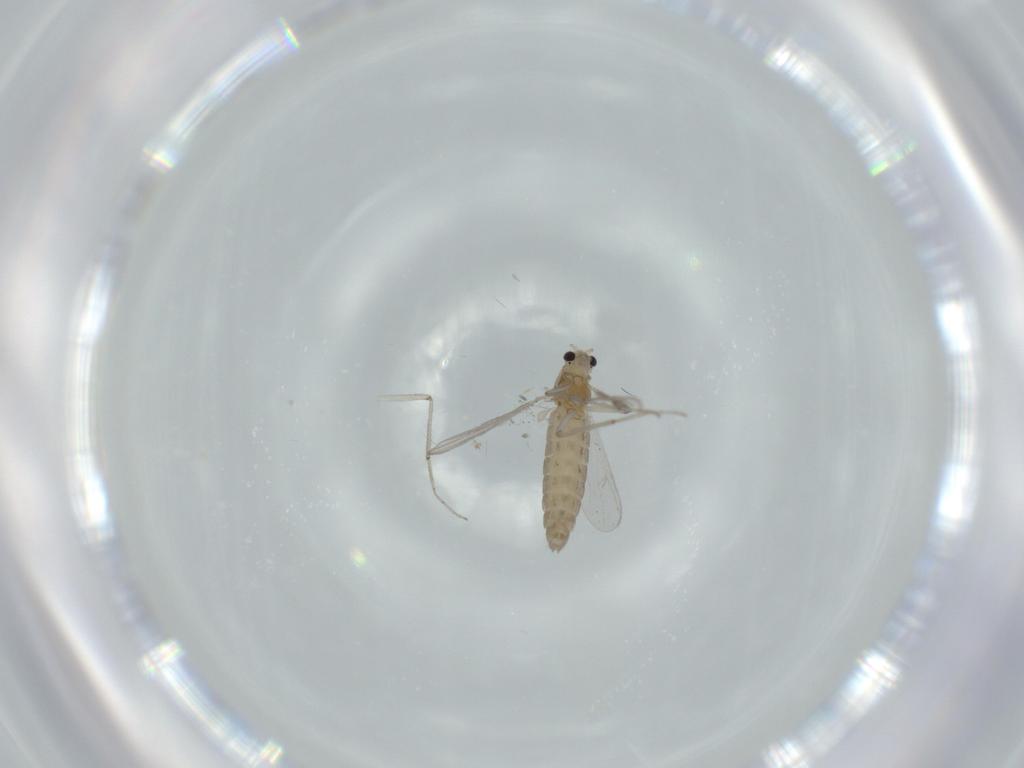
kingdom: Animalia
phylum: Arthropoda
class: Insecta
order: Diptera
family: Chironomidae
